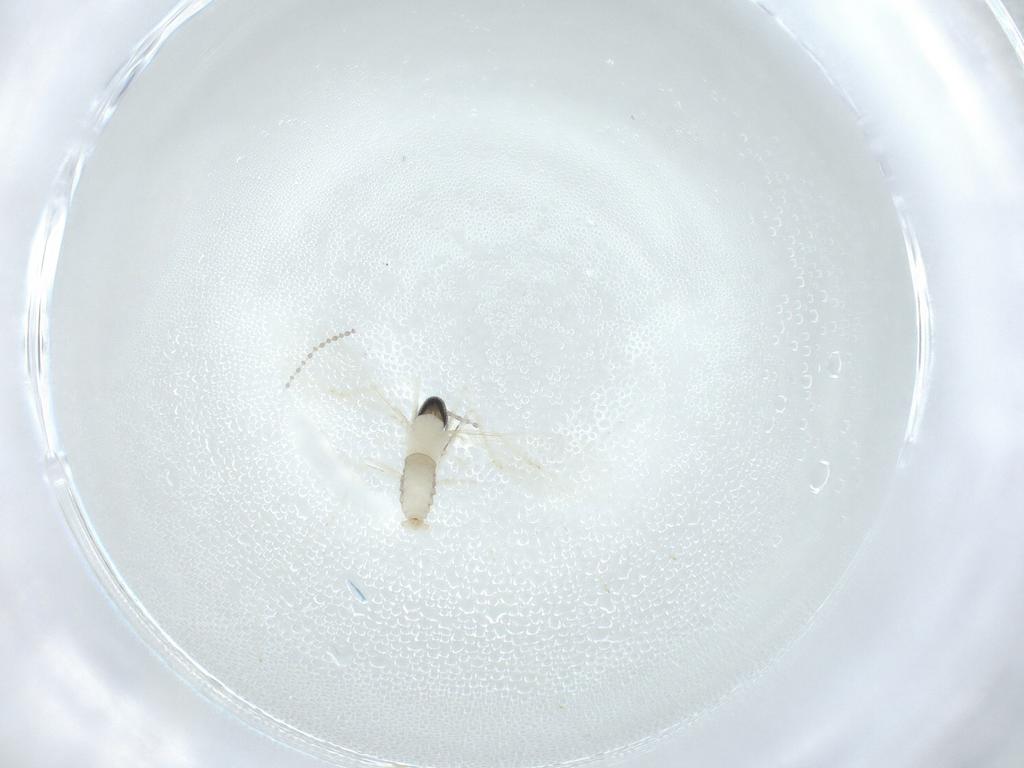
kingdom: Animalia
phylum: Arthropoda
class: Insecta
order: Diptera
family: Cecidomyiidae
